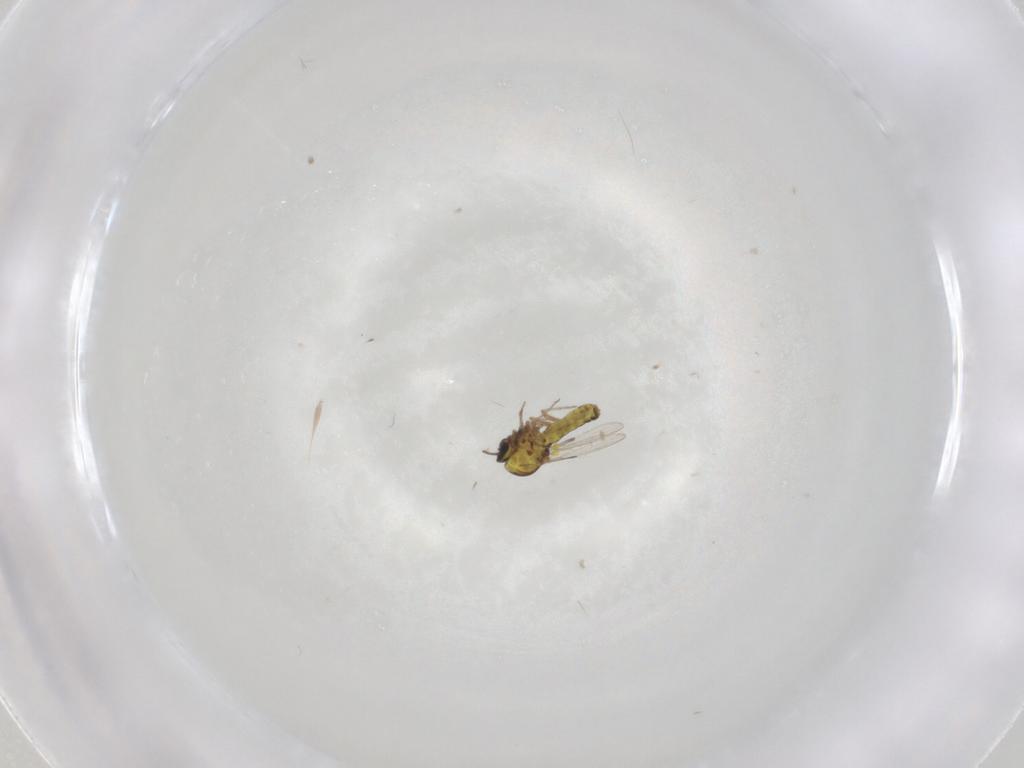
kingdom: Animalia
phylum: Arthropoda
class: Insecta
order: Diptera
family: Ceratopogonidae
